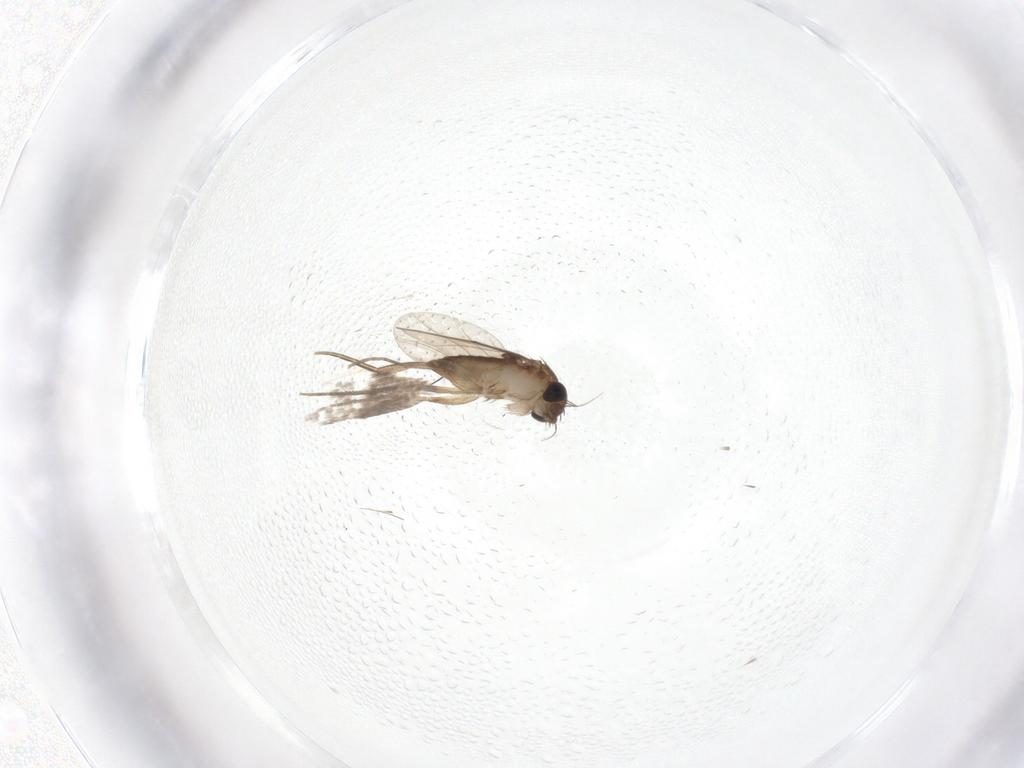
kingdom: Animalia
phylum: Arthropoda
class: Insecta
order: Diptera
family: Phoridae
